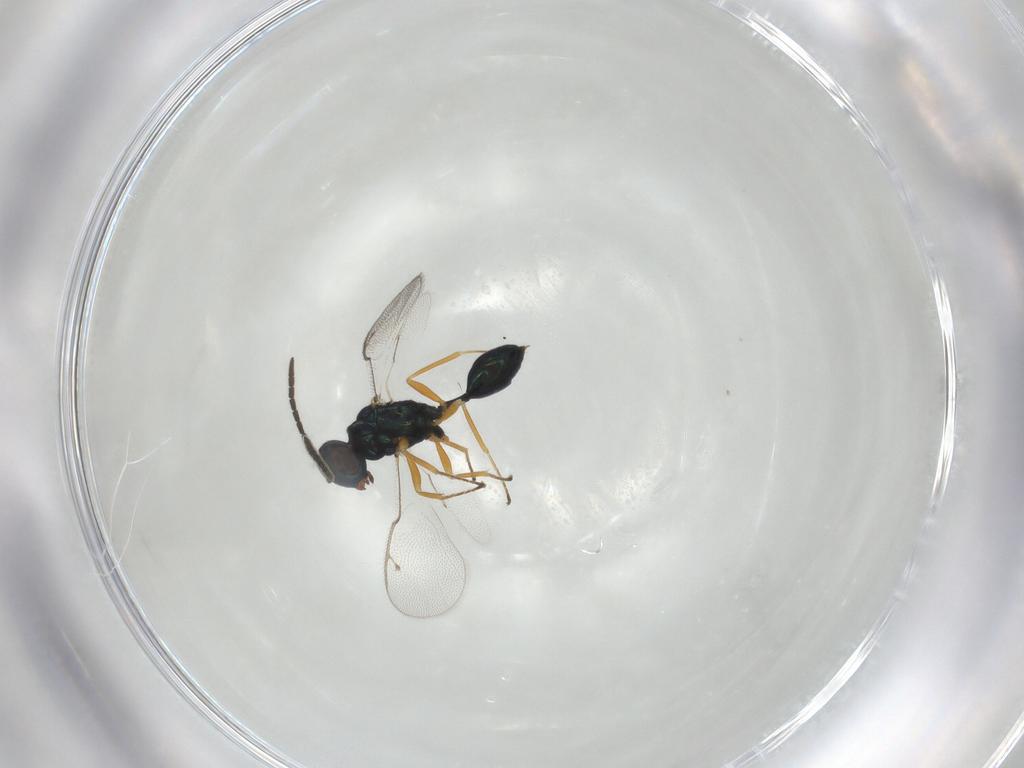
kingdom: Animalia
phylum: Arthropoda
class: Insecta
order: Hymenoptera
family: Pteromalidae
